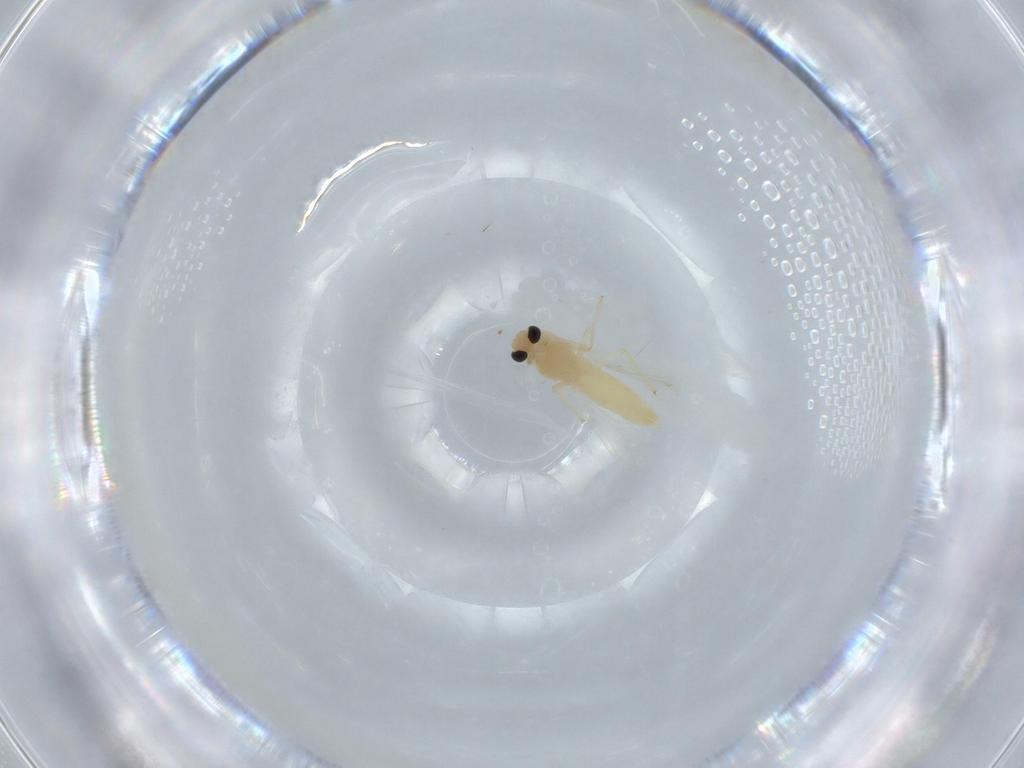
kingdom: Animalia
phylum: Arthropoda
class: Insecta
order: Diptera
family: Chironomidae
